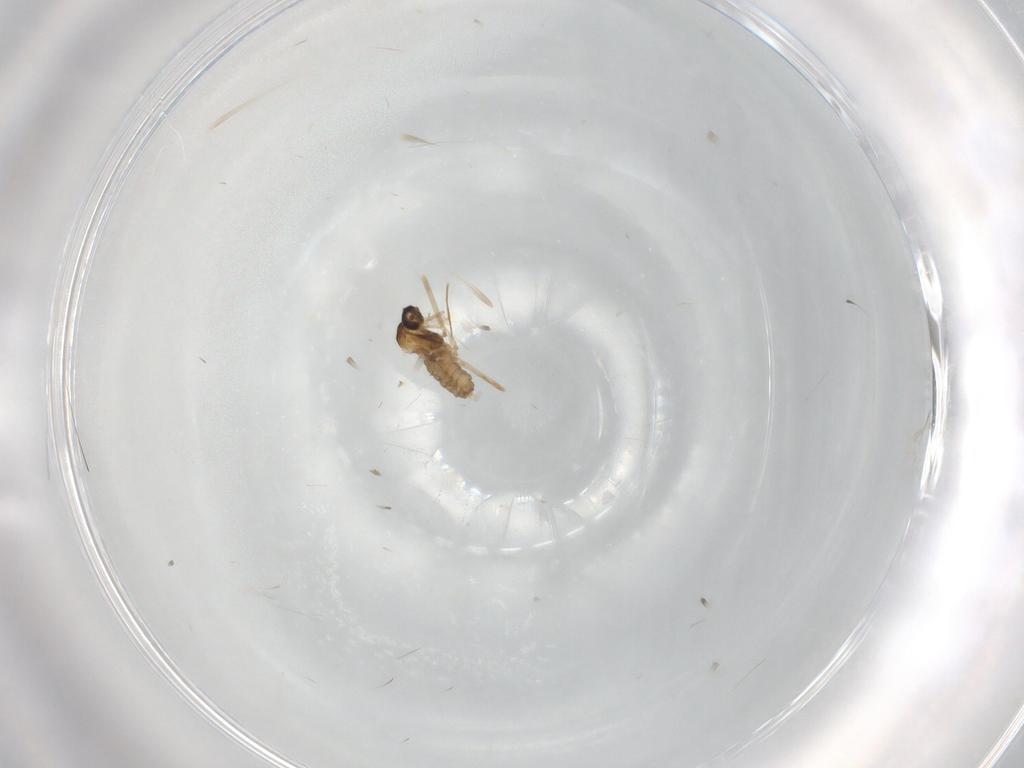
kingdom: Animalia
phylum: Arthropoda
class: Insecta
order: Diptera
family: Cecidomyiidae
